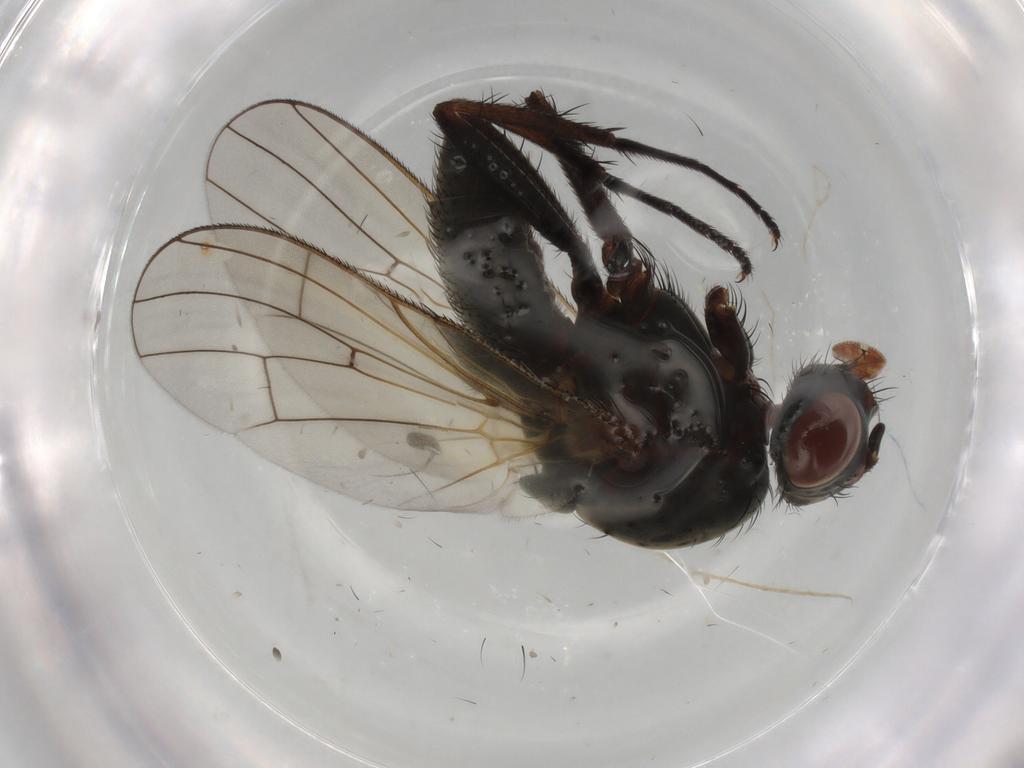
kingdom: Animalia
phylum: Arthropoda
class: Insecta
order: Diptera
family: Anthomyiidae
